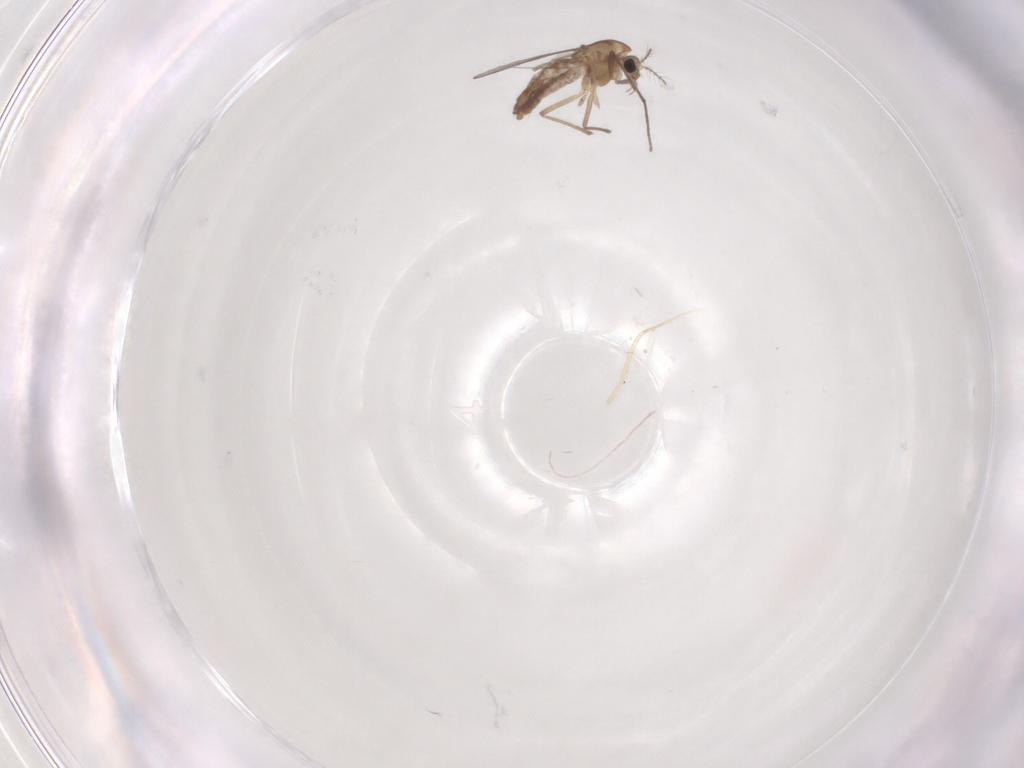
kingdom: Animalia
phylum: Arthropoda
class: Insecta
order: Diptera
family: Cecidomyiidae
